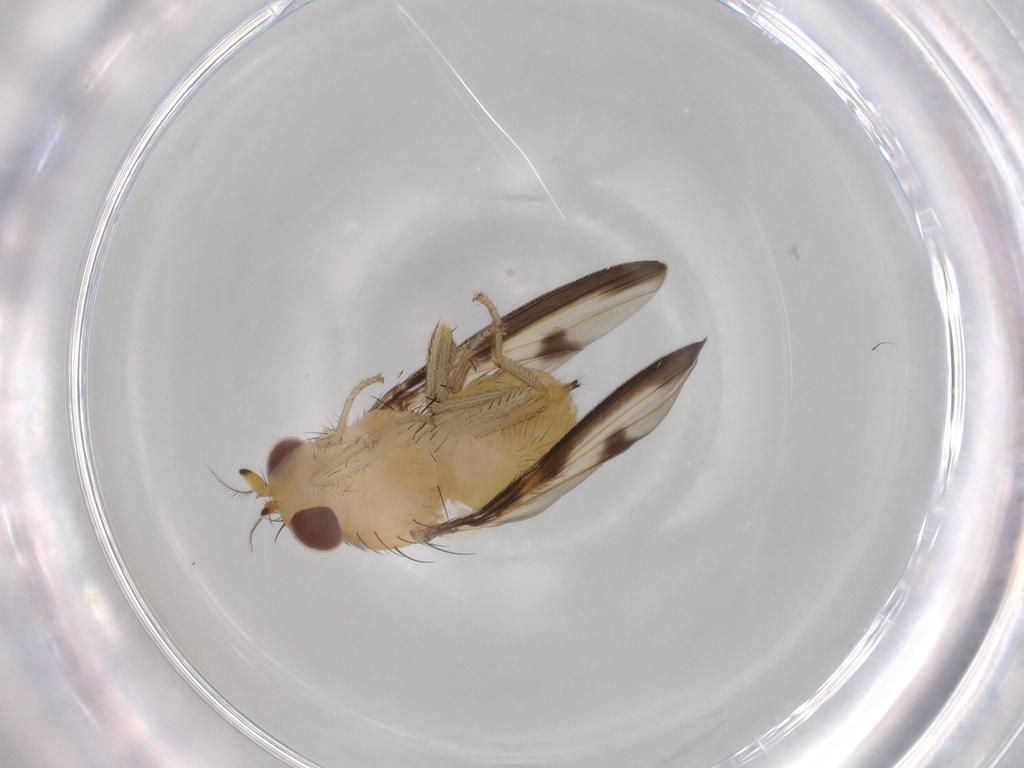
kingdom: Animalia
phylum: Arthropoda
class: Insecta
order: Diptera
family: Lauxaniidae
